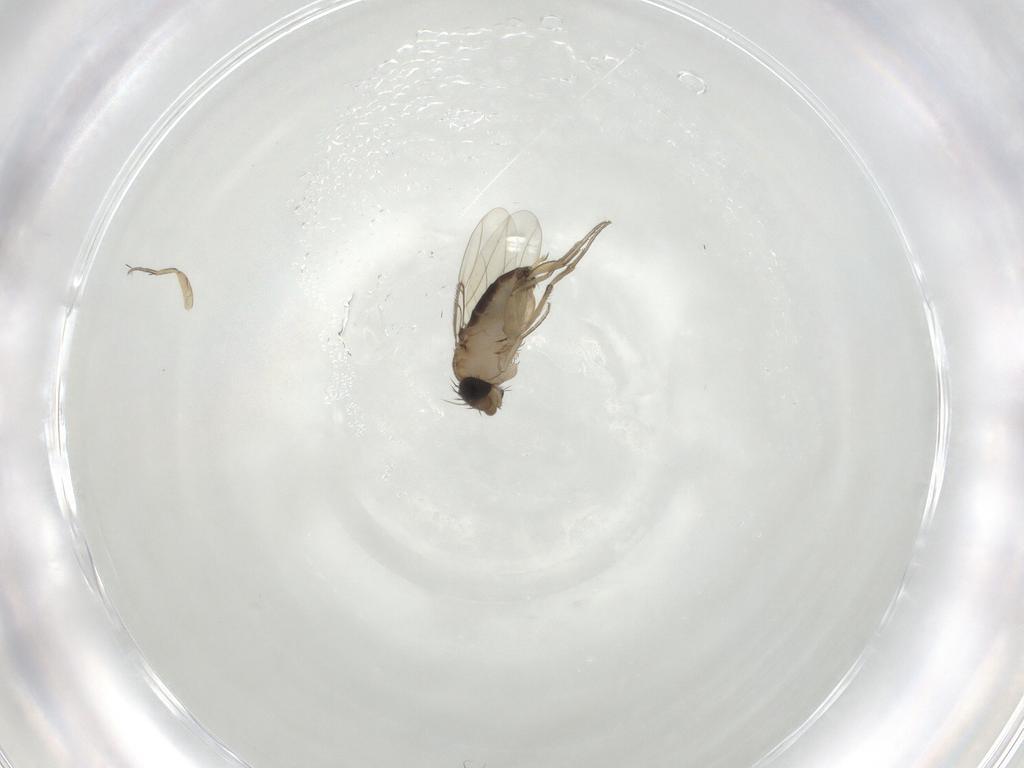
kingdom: Animalia
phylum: Arthropoda
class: Insecta
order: Diptera
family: Phoridae
